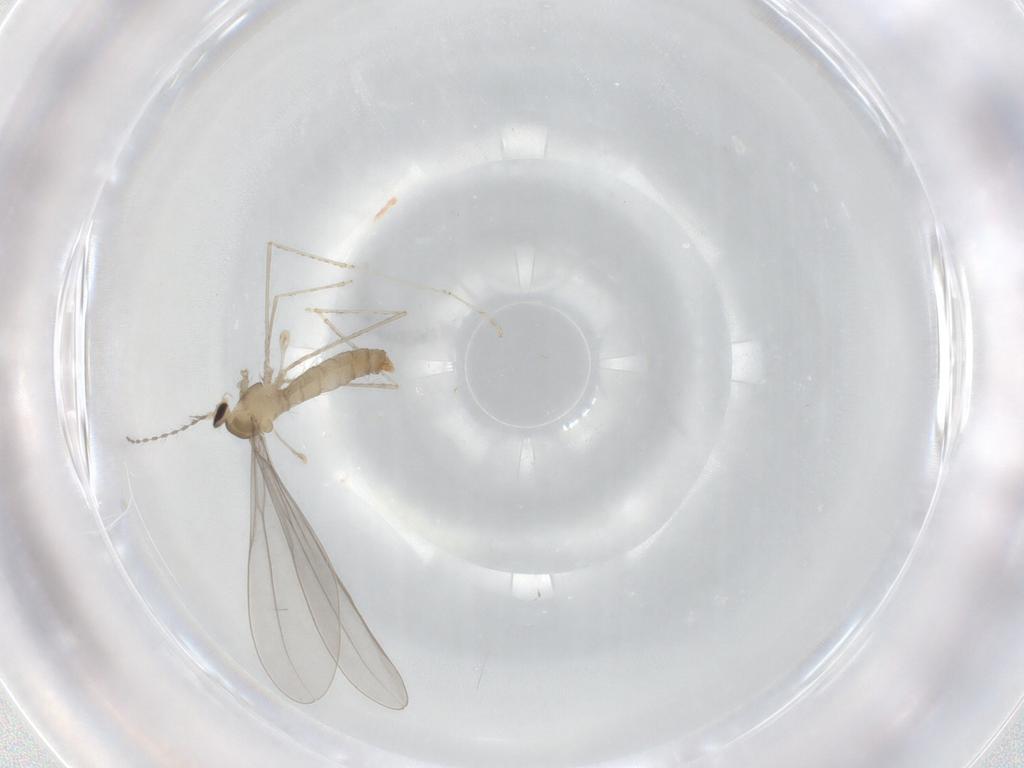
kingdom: Animalia
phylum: Arthropoda
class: Insecta
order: Diptera
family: Cecidomyiidae
